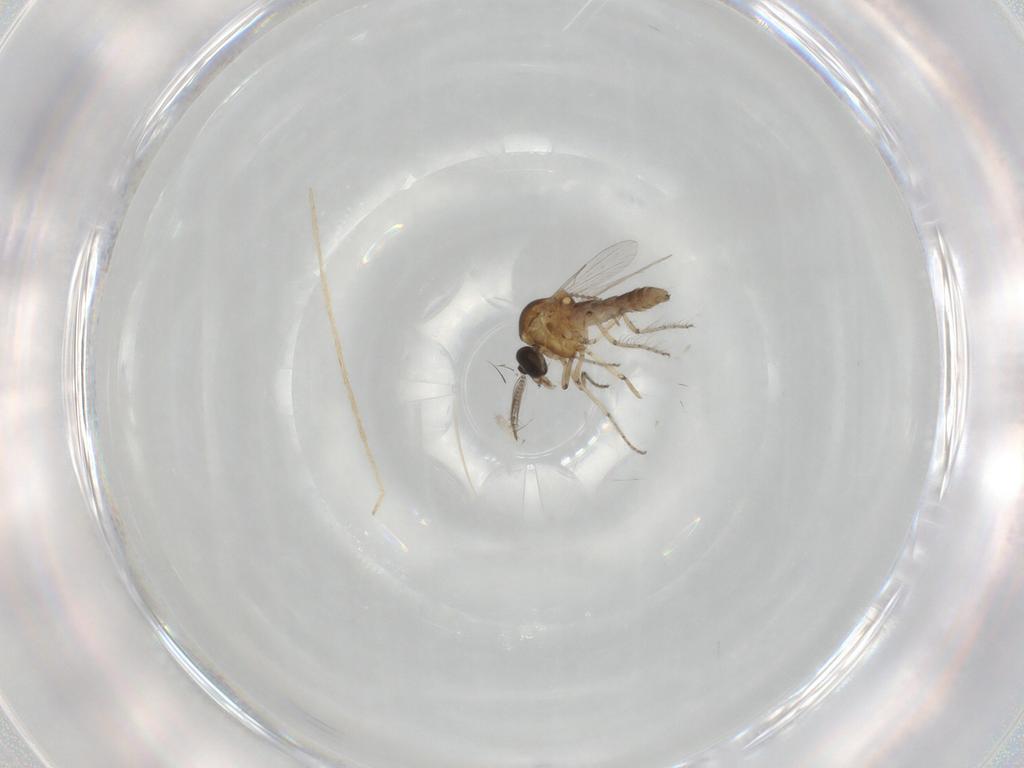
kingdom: Animalia
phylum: Arthropoda
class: Insecta
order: Diptera
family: Ceratopogonidae
